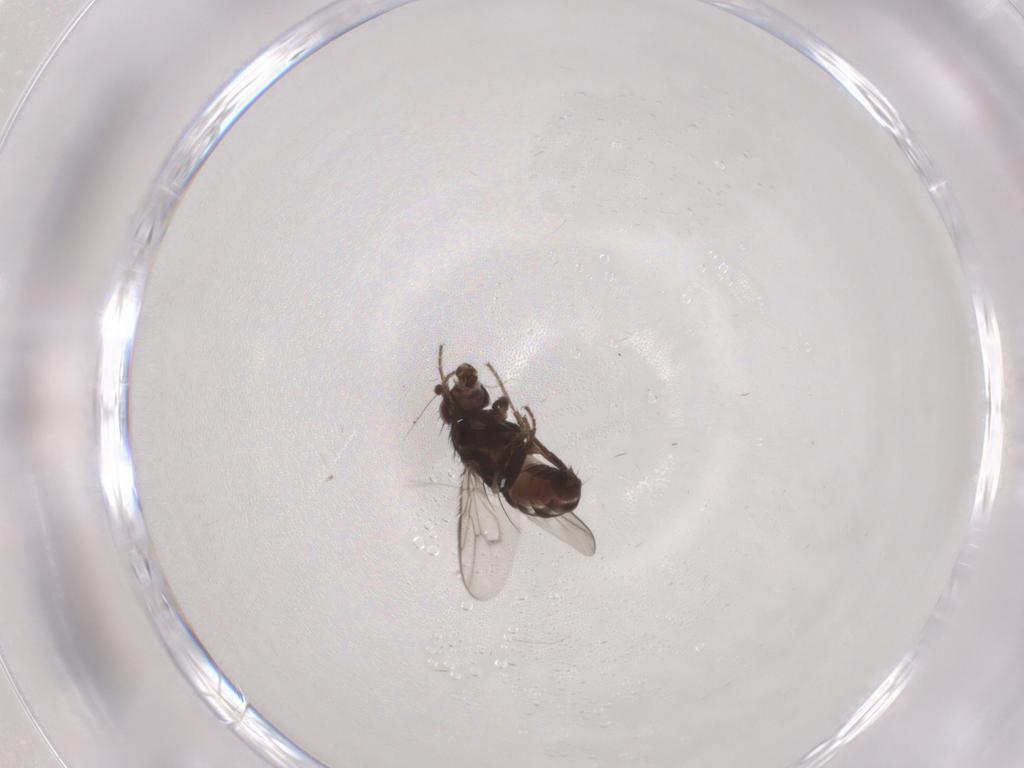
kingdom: Animalia
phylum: Arthropoda
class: Insecta
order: Diptera
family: Sphaeroceridae
